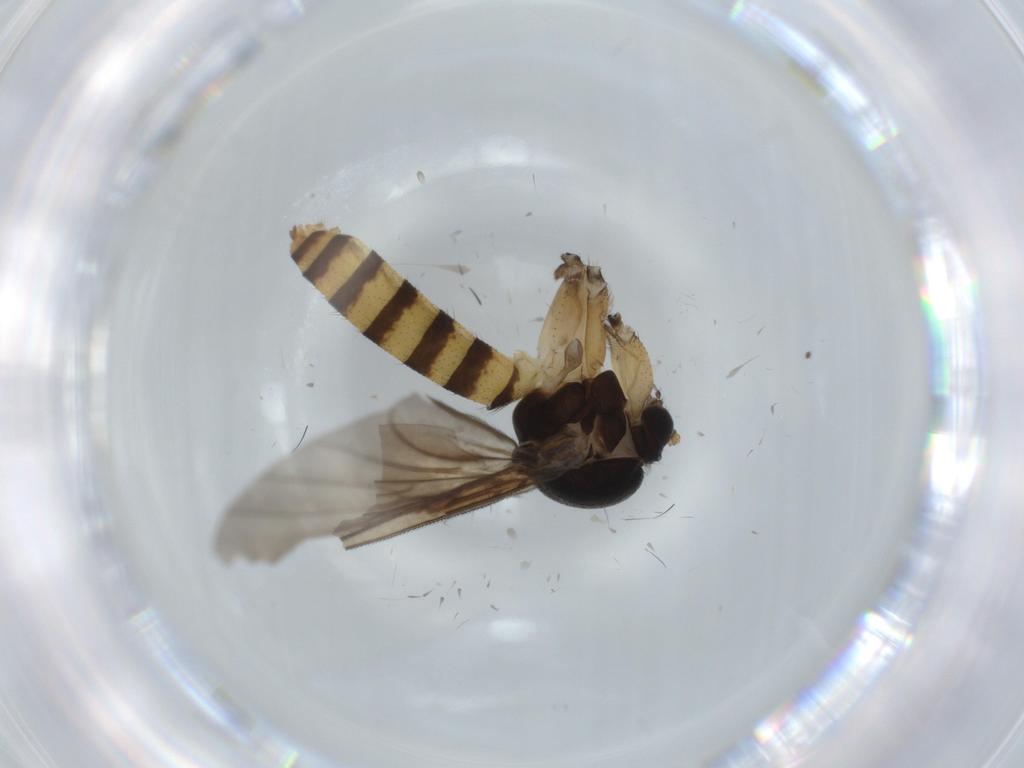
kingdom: Animalia
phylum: Arthropoda
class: Insecta
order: Diptera
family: Mycetophilidae
